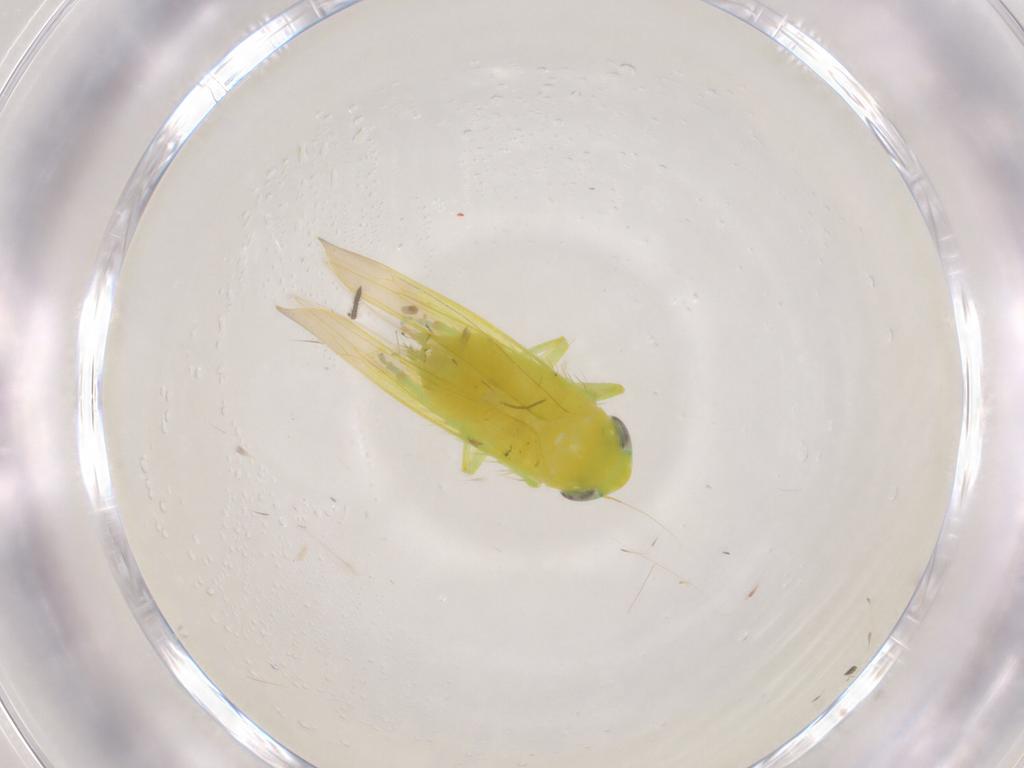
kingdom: Animalia
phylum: Arthropoda
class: Insecta
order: Hemiptera
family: Cicadellidae
